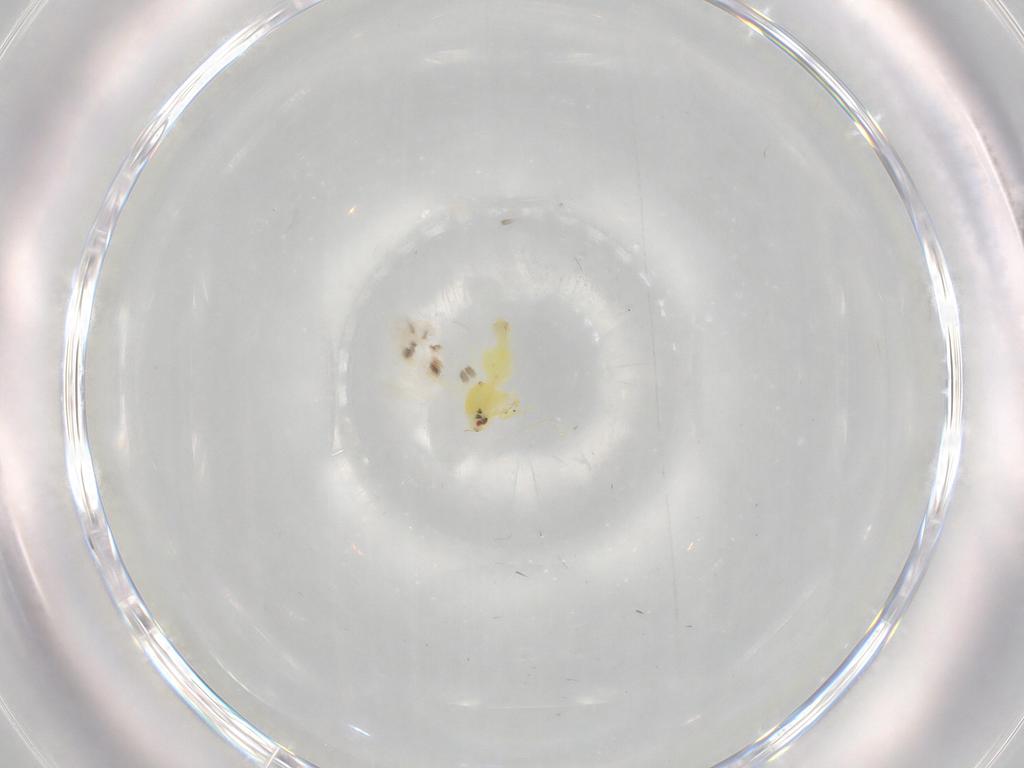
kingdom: Animalia
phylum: Arthropoda
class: Insecta
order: Hemiptera
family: Aleyrodidae
